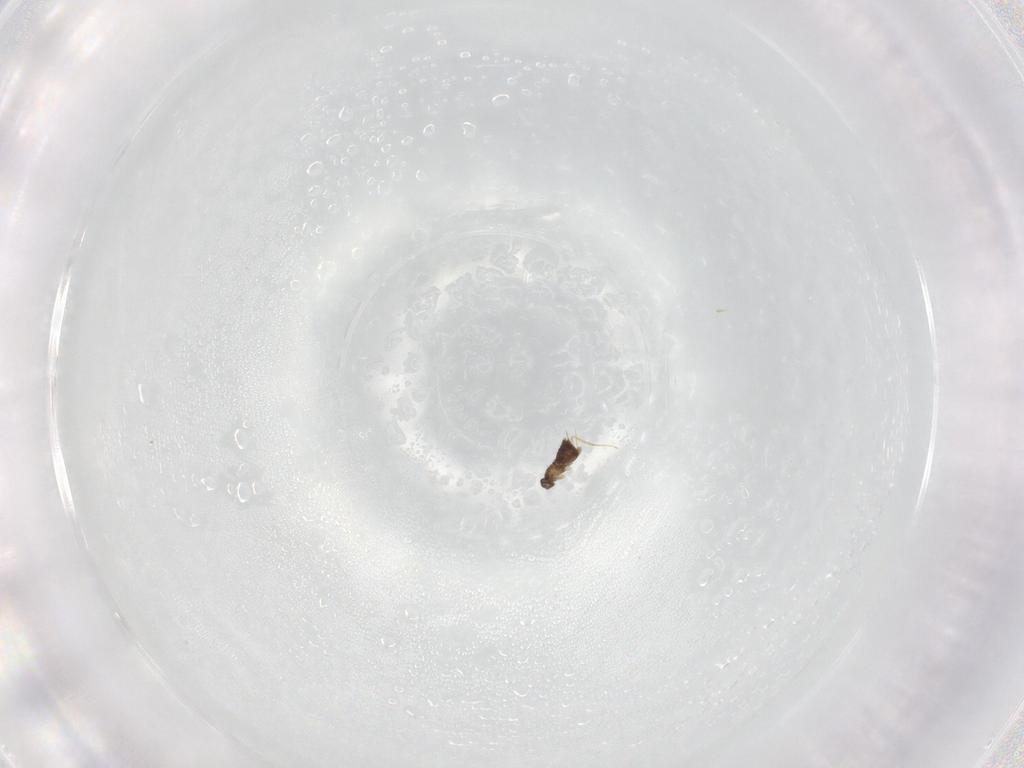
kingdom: Animalia
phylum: Arthropoda
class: Insecta
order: Hymenoptera
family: Mymaridae
